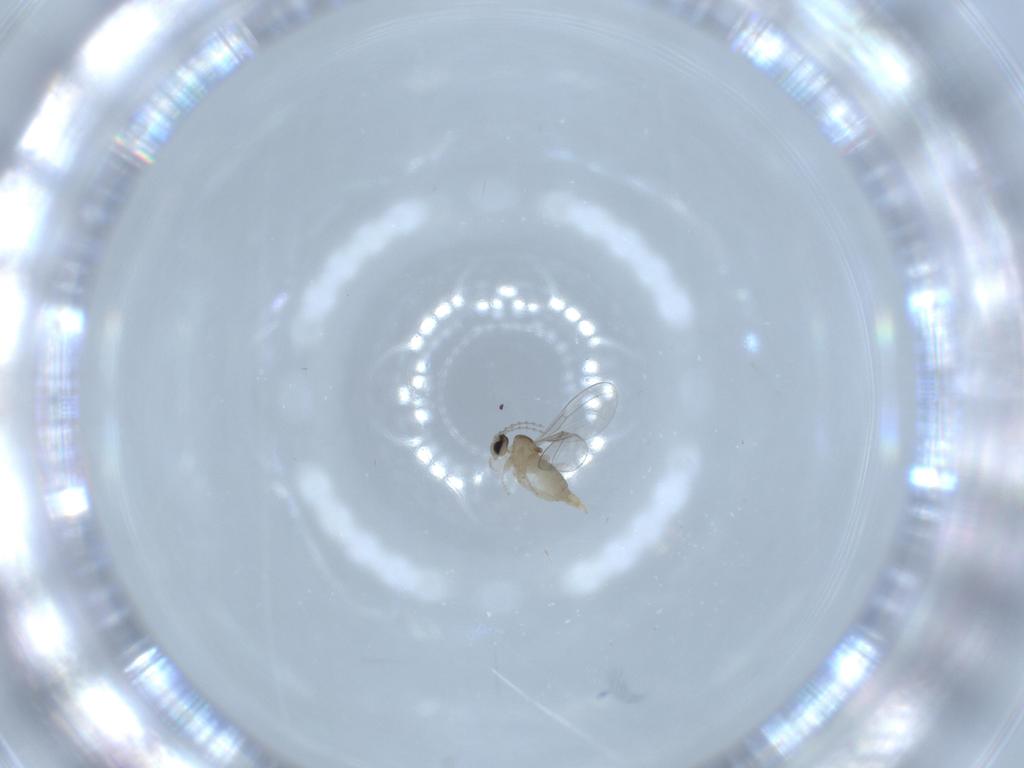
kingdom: Animalia
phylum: Arthropoda
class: Insecta
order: Diptera
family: Cecidomyiidae
